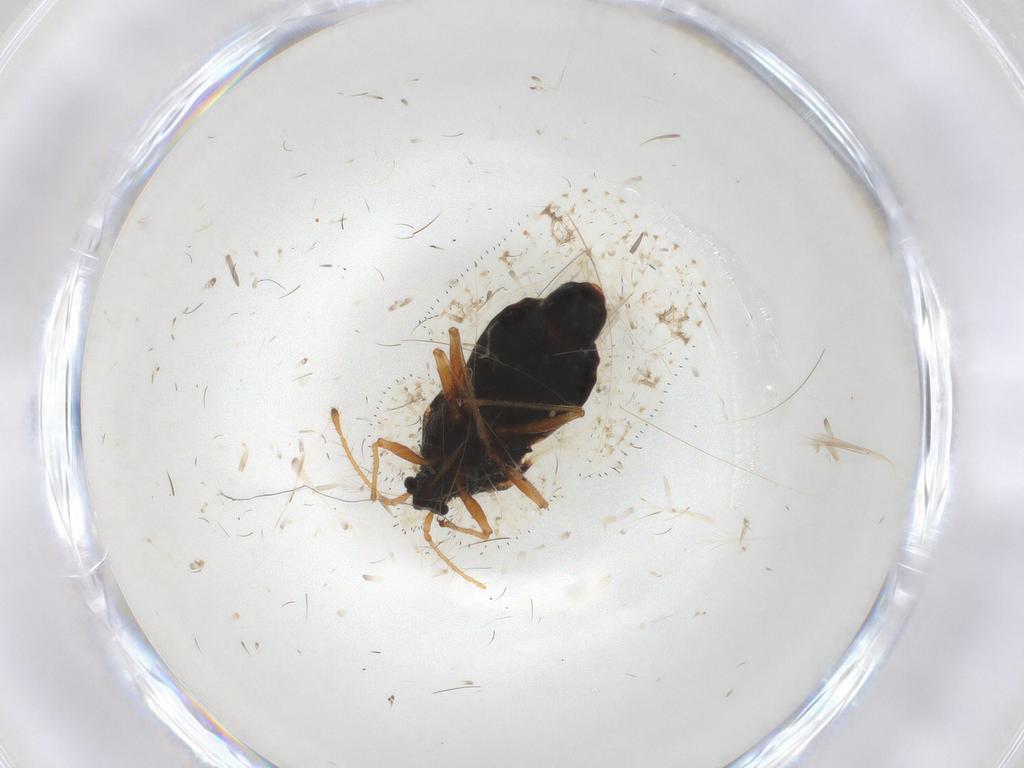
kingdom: Animalia
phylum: Arthropoda
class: Insecta
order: Hemiptera
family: Tingidae
